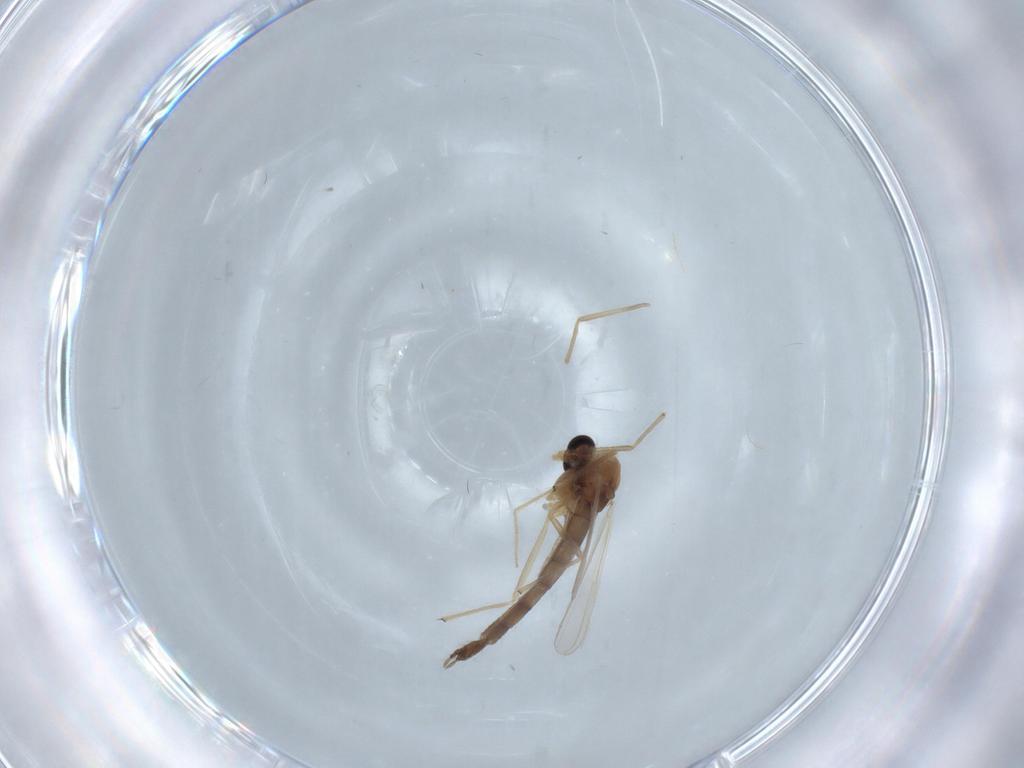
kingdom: Animalia
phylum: Arthropoda
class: Insecta
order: Diptera
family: Chironomidae
